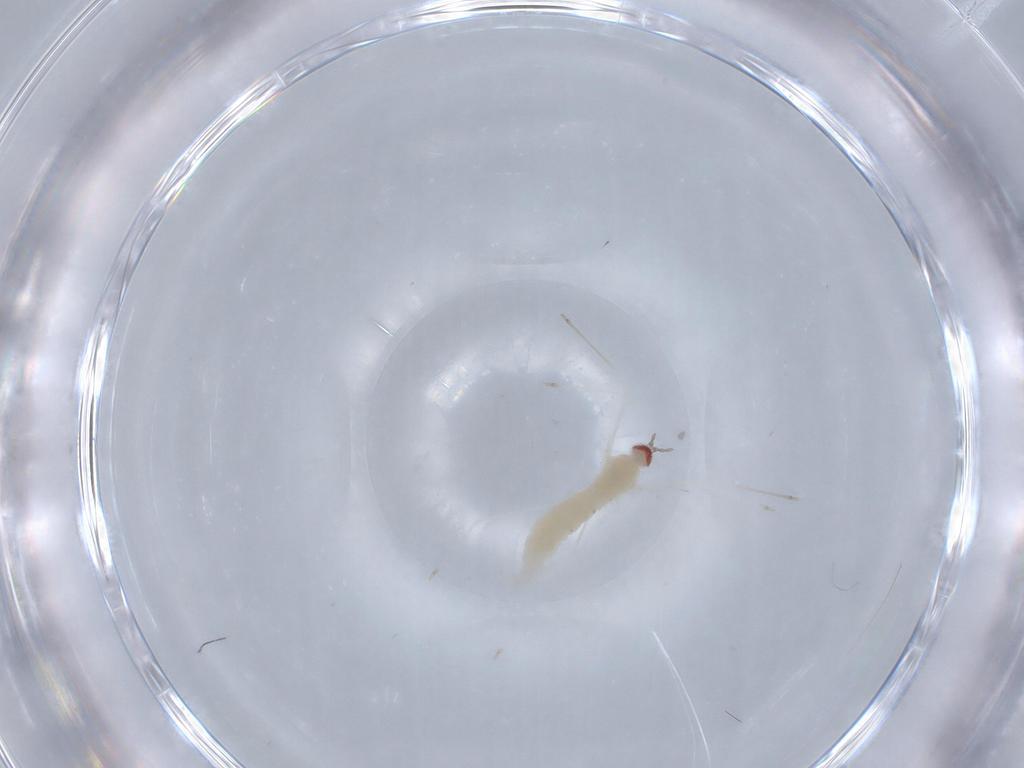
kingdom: Animalia
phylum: Arthropoda
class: Insecta
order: Diptera
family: Cecidomyiidae
